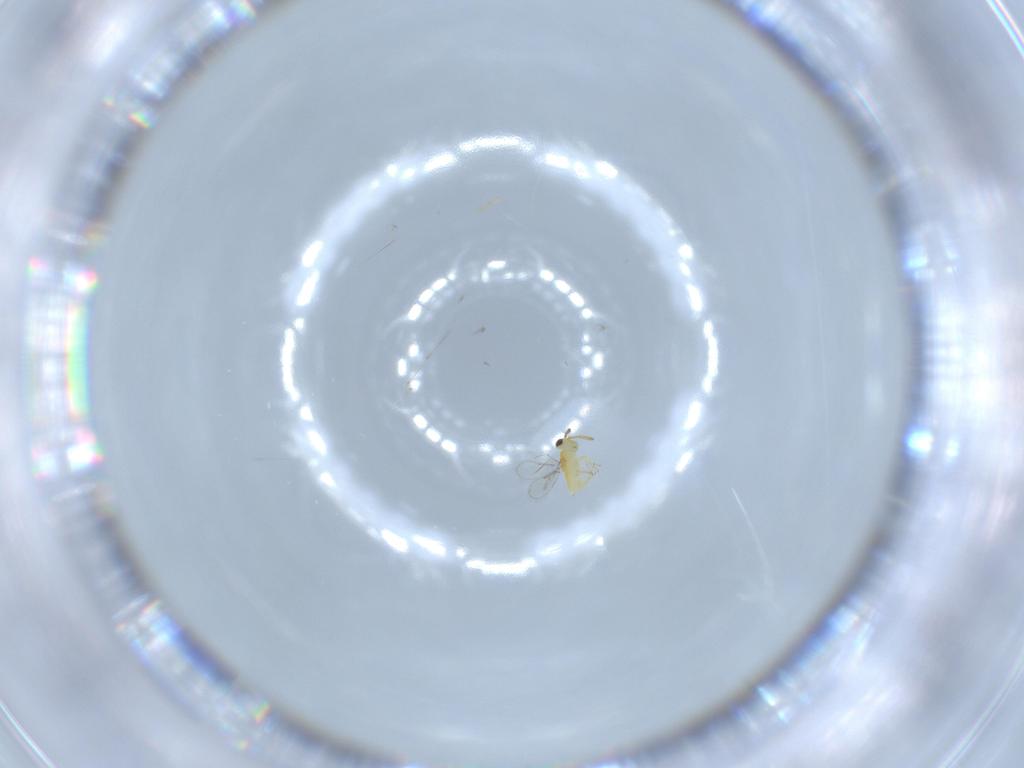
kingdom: Animalia
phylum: Arthropoda
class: Insecta
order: Hymenoptera
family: Aphelinidae
